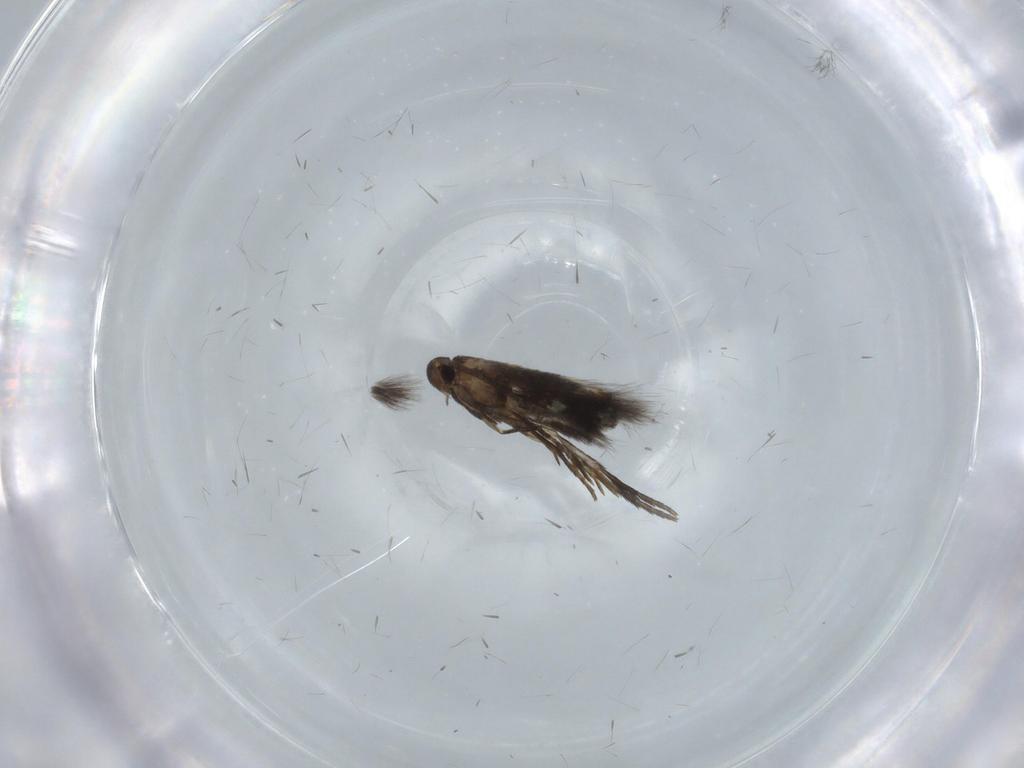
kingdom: Animalia
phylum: Arthropoda
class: Insecta
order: Lepidoptera
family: Heliozelidae
